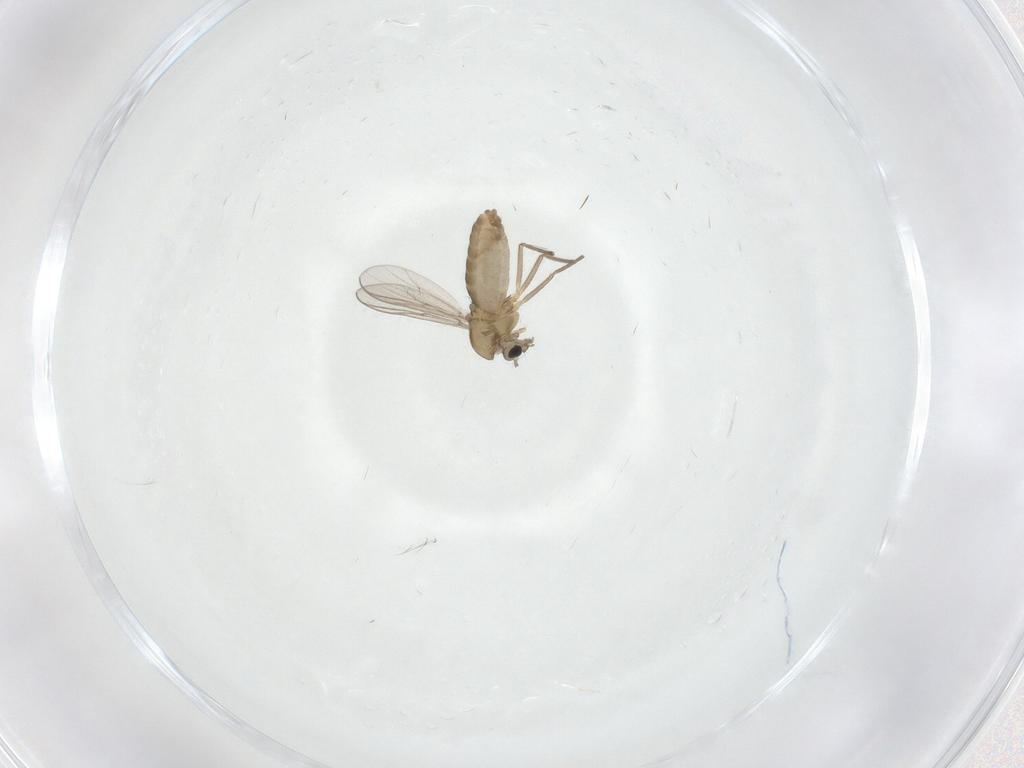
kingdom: Animalia
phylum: Arthropoda
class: Insecta
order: Diptera
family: Chironomidae
